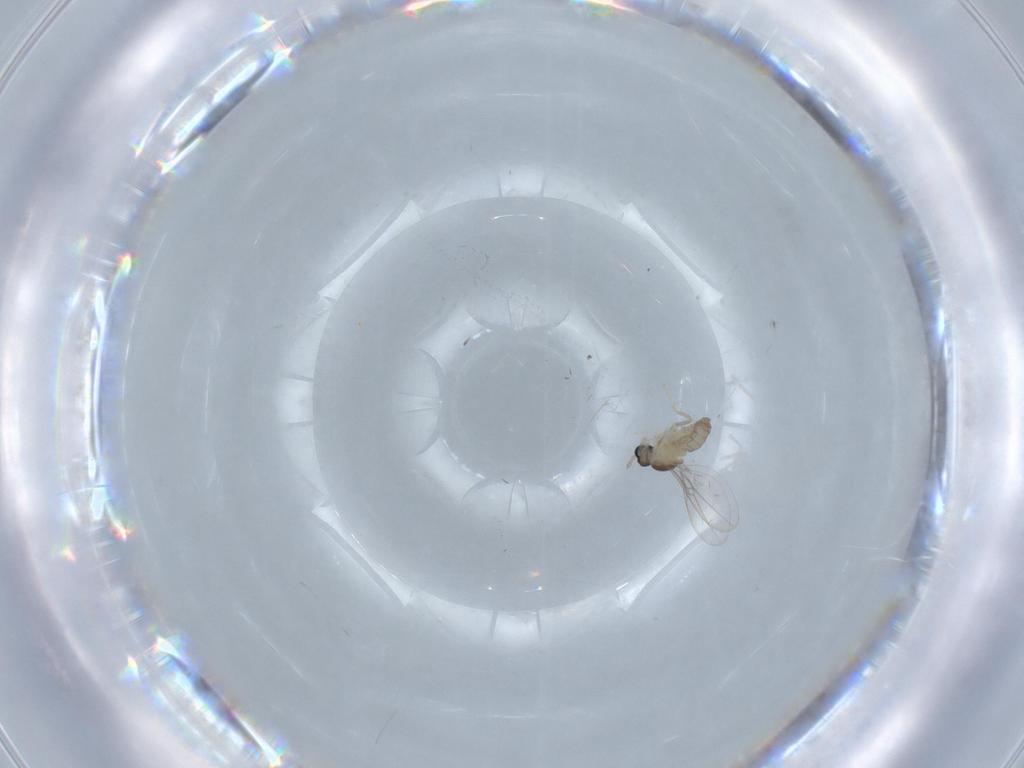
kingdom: Animalia
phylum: Arthropoda
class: Insecta
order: Diptera
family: Cecidomyiidae
